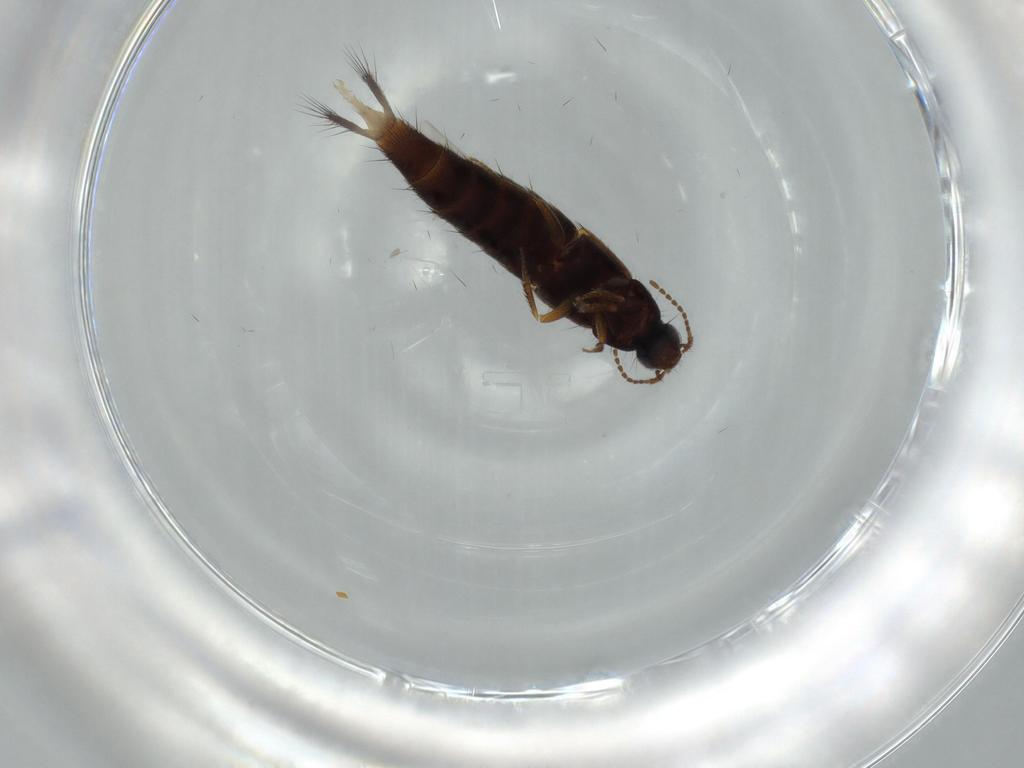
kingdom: Animalia
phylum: Arthropoda
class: Insecta
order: Coleoptera
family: Staphylinidae
